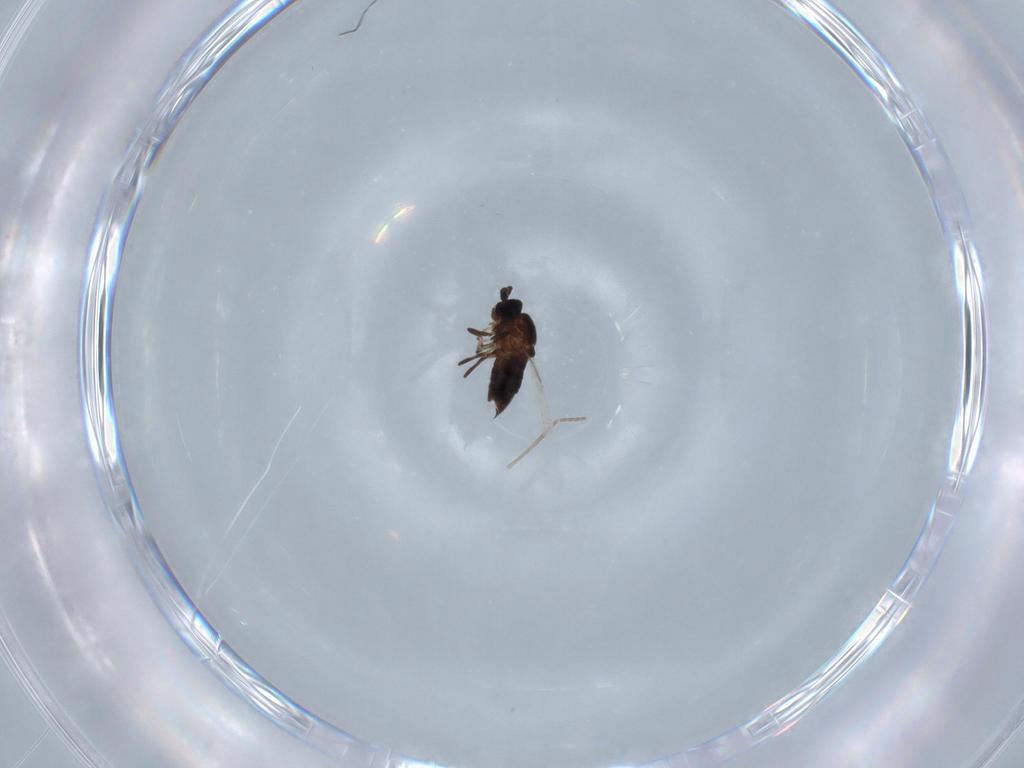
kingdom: Animalia
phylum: Arthropoda
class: Insecta
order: Diptera
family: Scatopsidae
